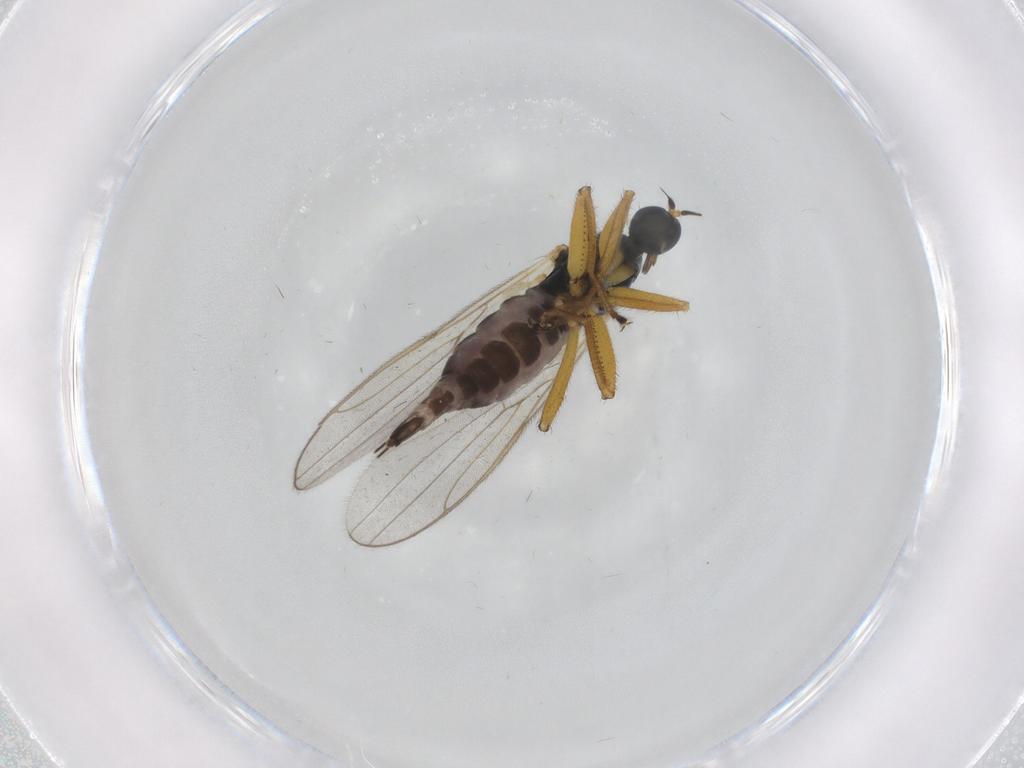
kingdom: Animalia
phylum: Arthropoda
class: Insecta
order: Diptera
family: Hybotidae
